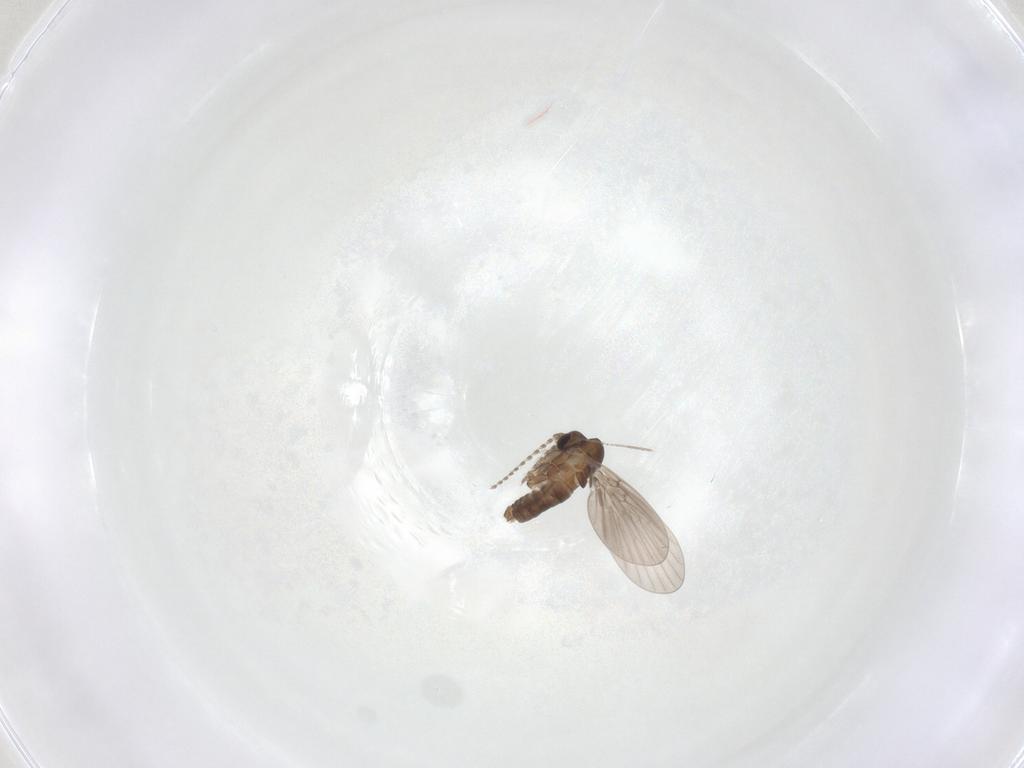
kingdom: Animalia
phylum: Arthropoda
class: Insecta
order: Diptera
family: Psychodidae
